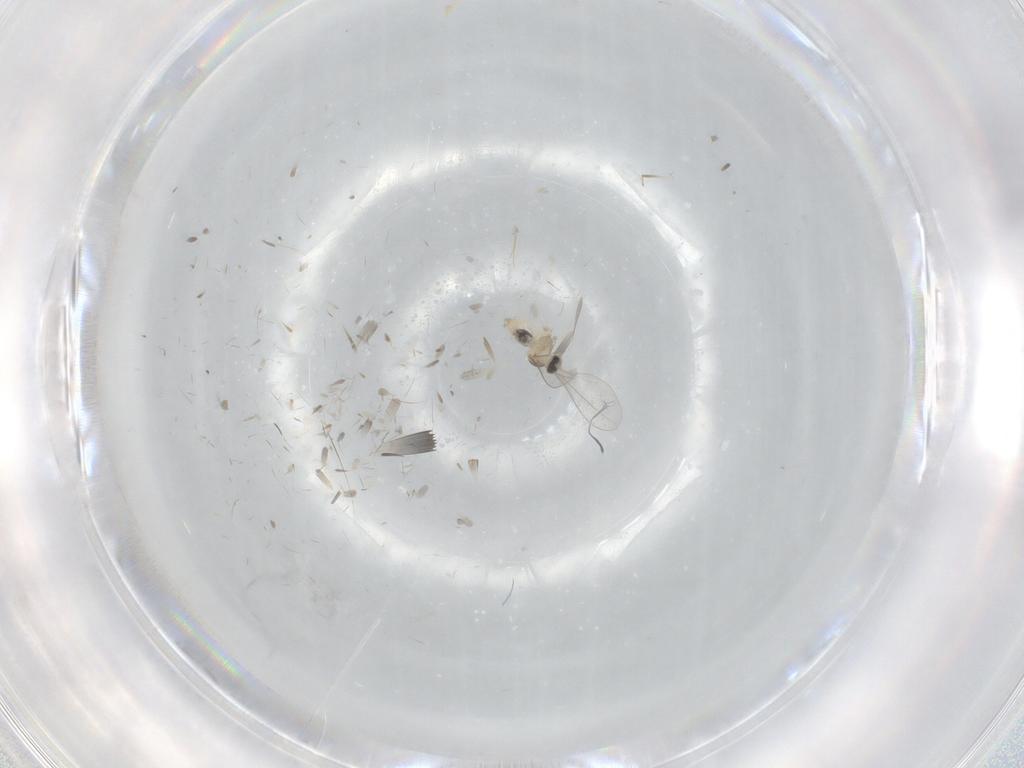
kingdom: Animalia
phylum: Arthropoda
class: Insecta
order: Diptera
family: Cecidomyiidae
